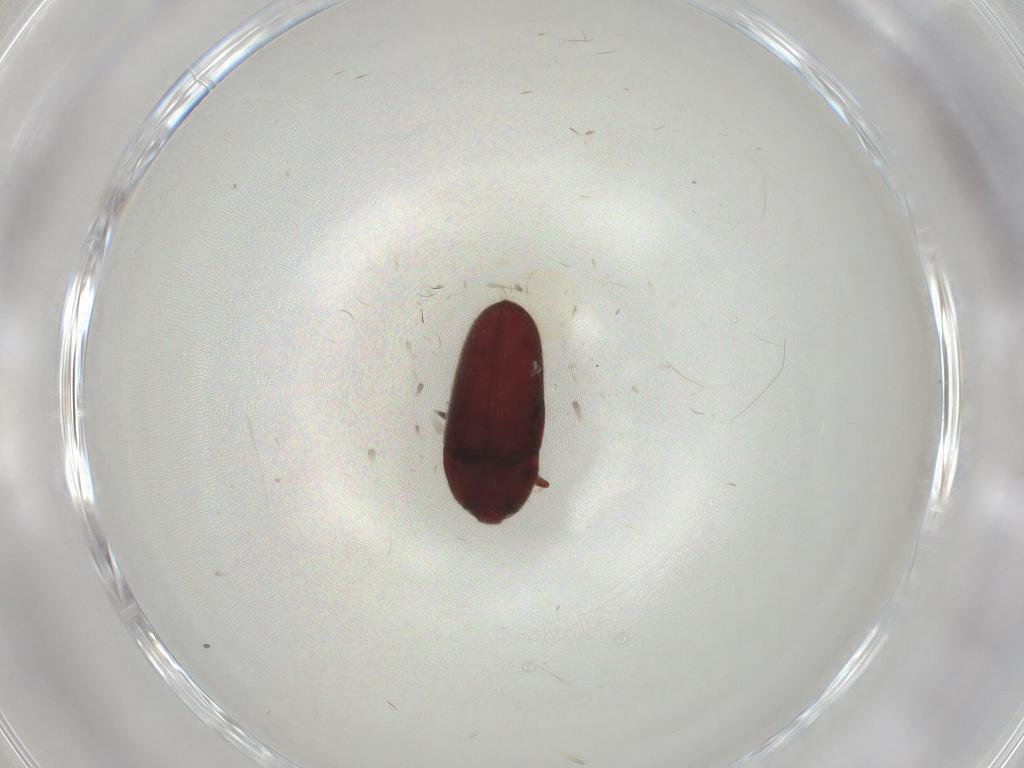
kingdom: Animalia
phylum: Arthropoda
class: Insecta
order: Coleoptera
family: Throscidae
